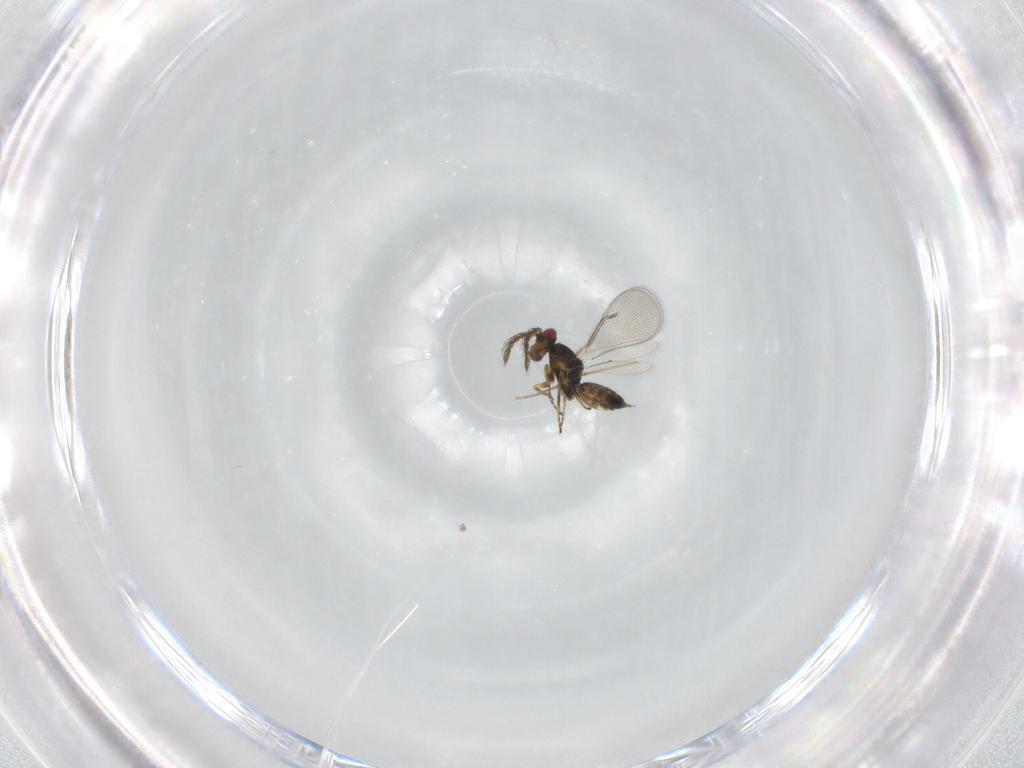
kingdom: Animalia
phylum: Arthropoda
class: Insecta
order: Hymenoptera
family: Eulophidae
